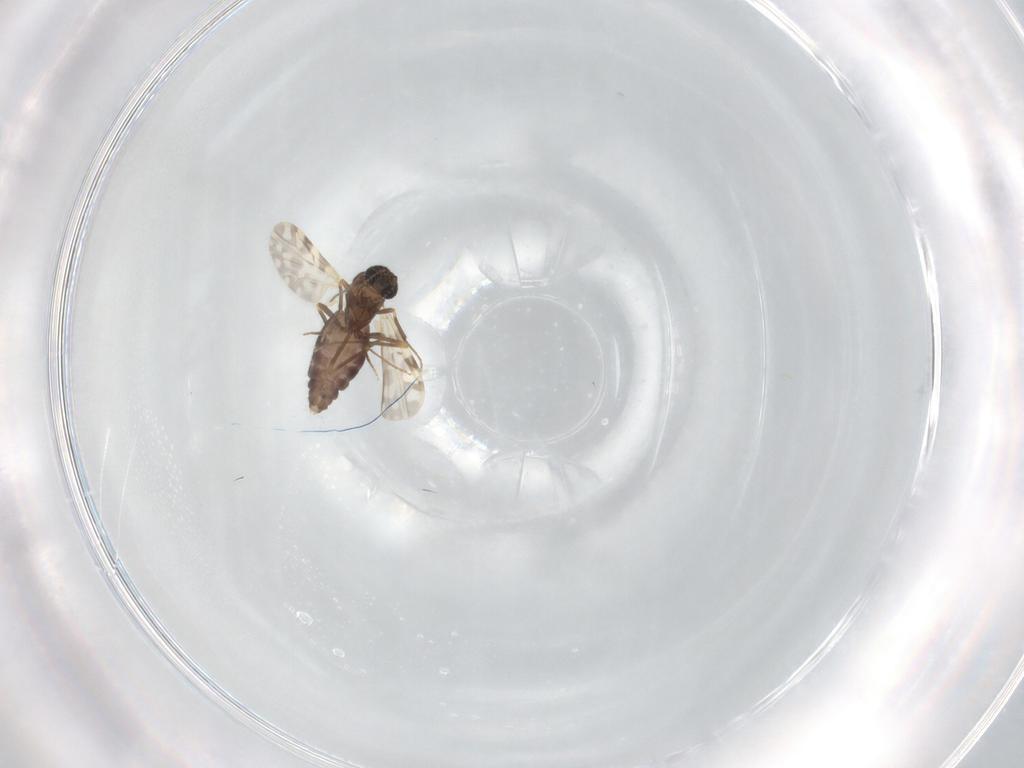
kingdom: Animalia
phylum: Arthropoda
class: Insecta
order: Diptera
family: Ceratopogonidae
